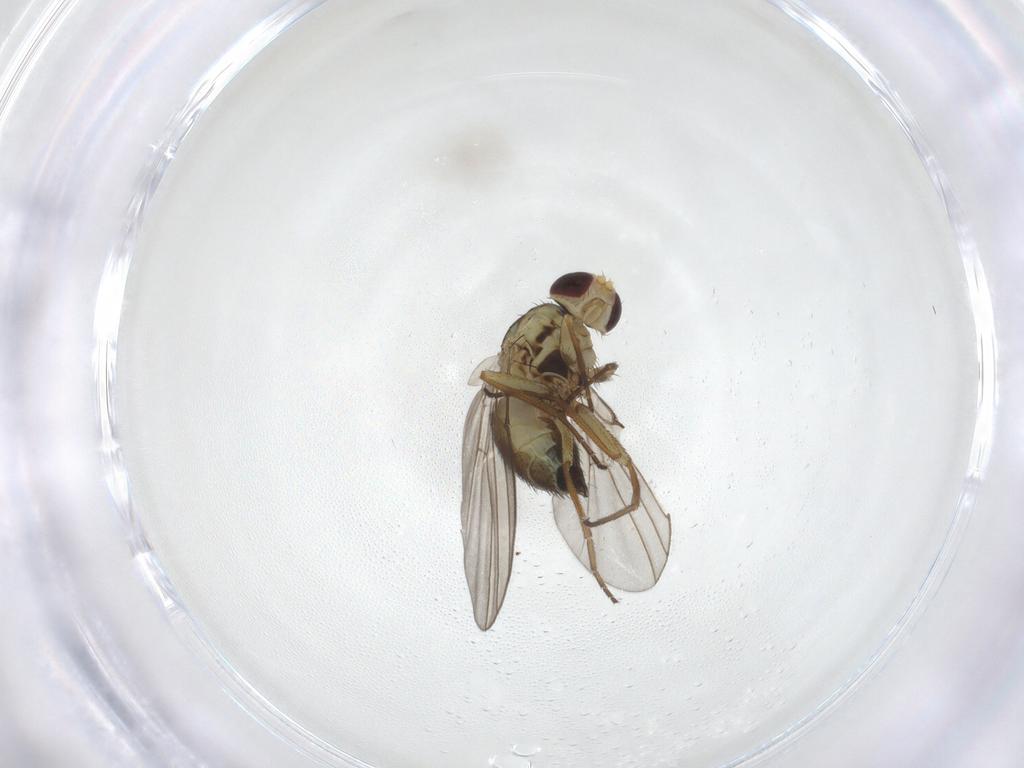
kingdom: Animalia
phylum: Arthropoda
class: Insecta
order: Diptera
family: Agromyzidae
